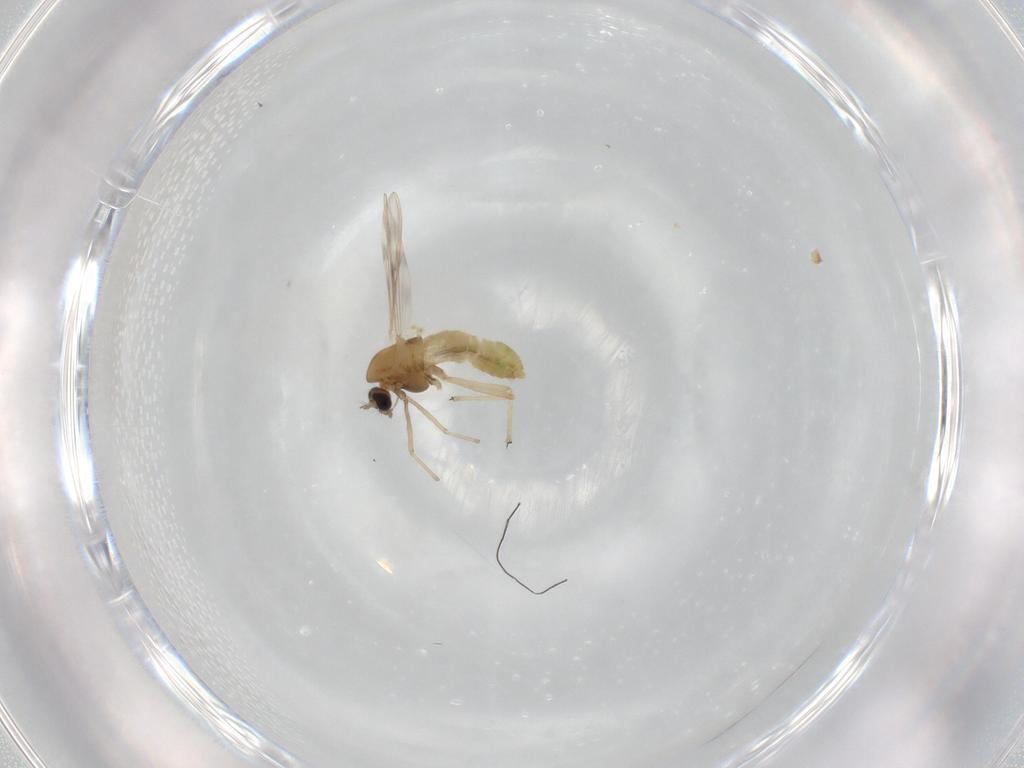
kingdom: Animalia
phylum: Arthropoda
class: Insecta
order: Diptera
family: Chironomidae
